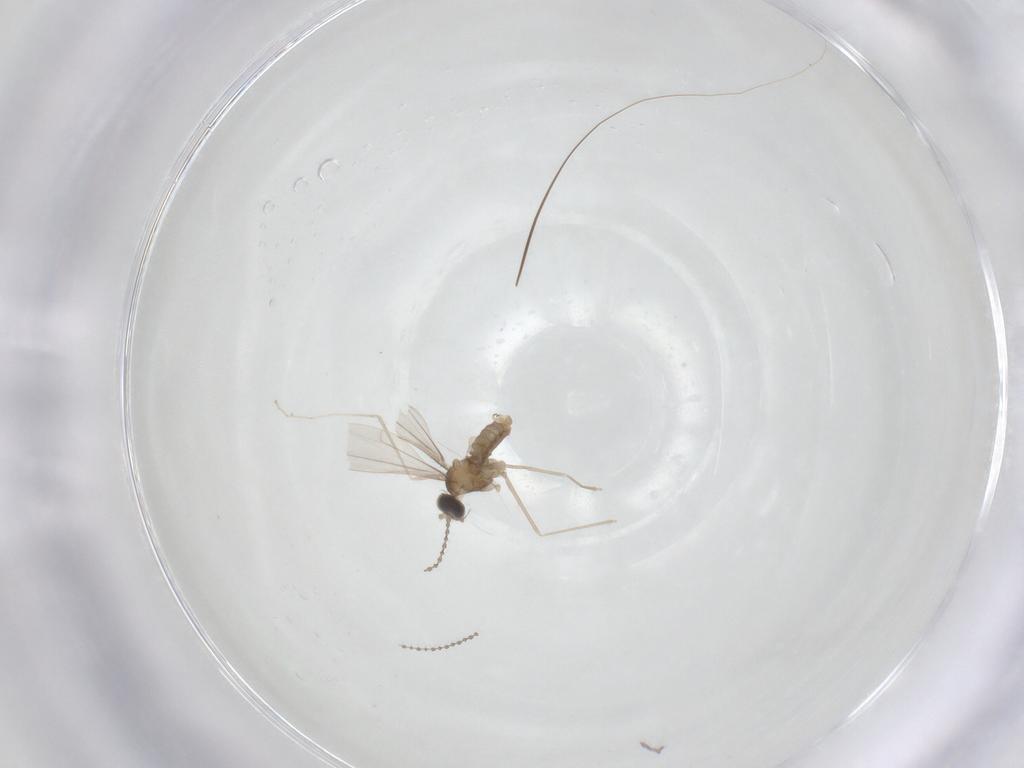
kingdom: Animalia
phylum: Arthropoda
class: Insecta
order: Diptera
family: Cecidomyiidae
